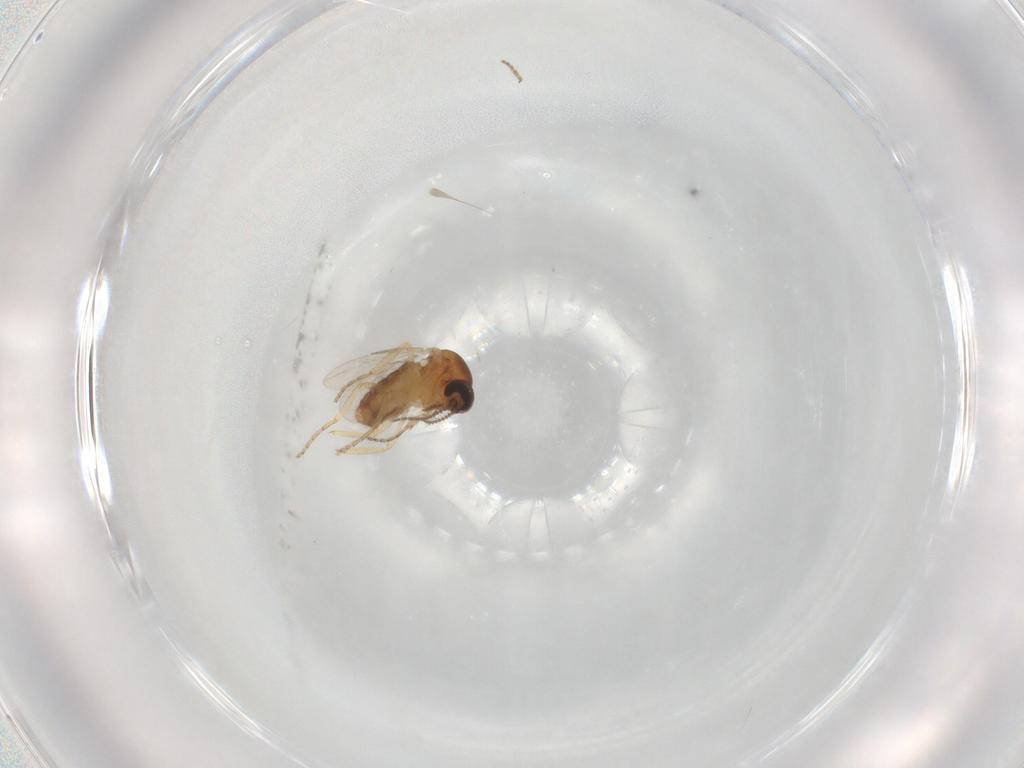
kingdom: Animalia
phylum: Arthropoda
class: Insecta
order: Diptera
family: Ceratopogonidae
